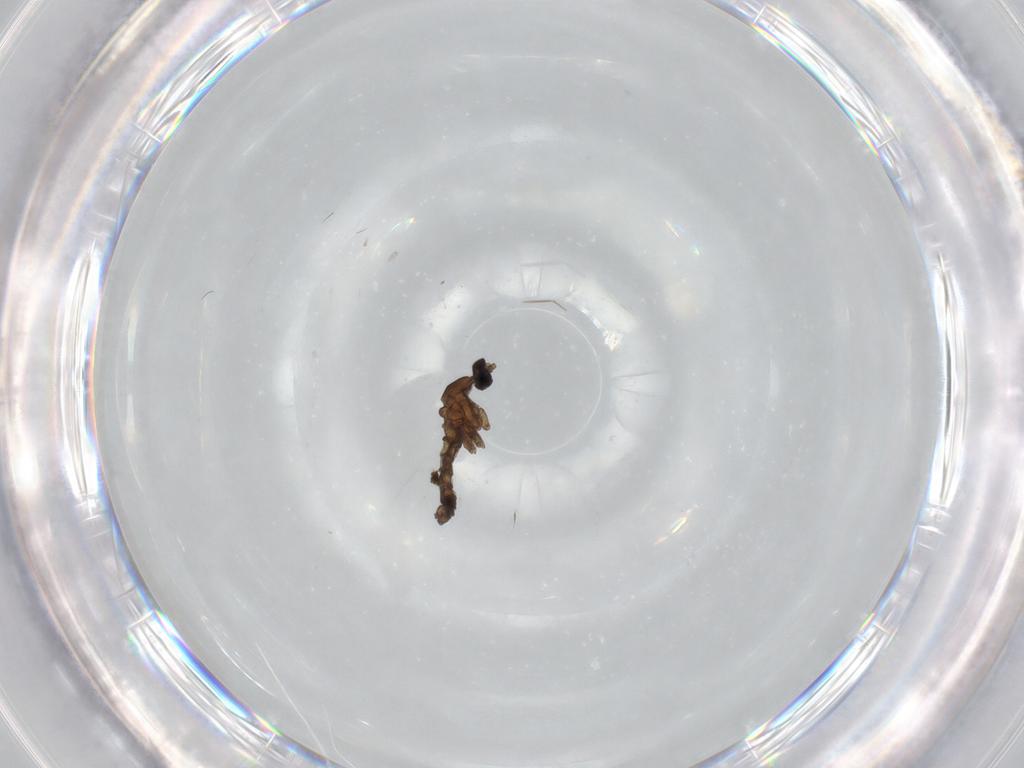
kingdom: Animalia
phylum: Arthropoda
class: Insecta
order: Diptera
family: Cecidomyiidae
